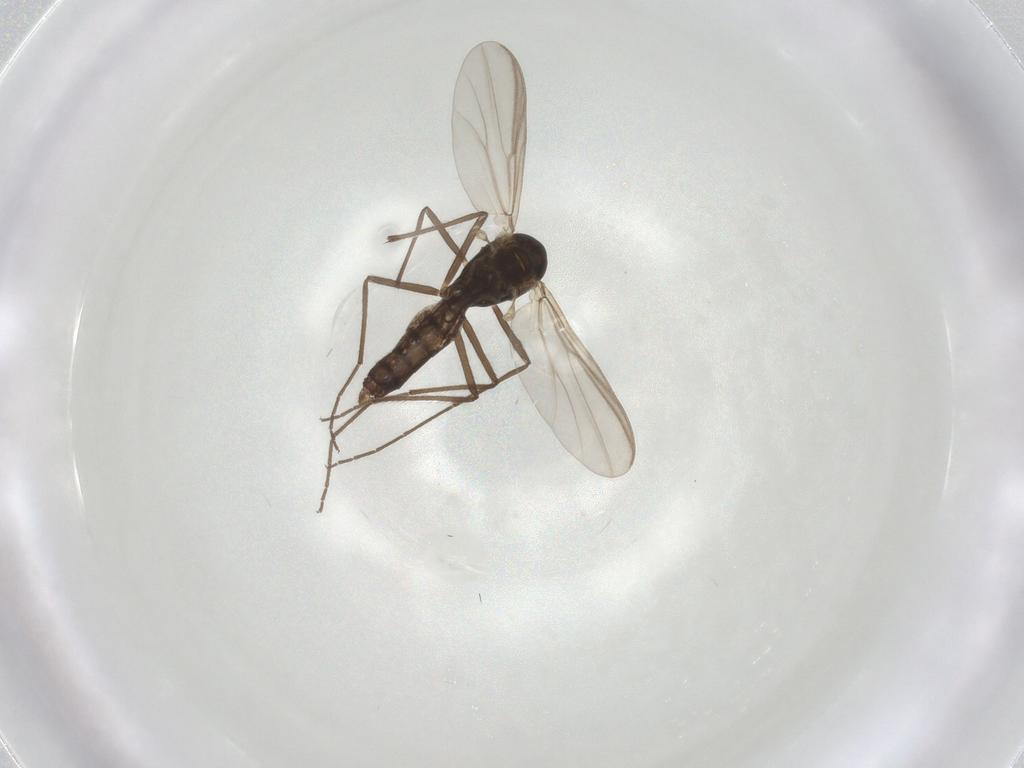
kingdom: Animalia
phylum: Arthropoda
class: Insecta
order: Diptera
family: Chironomidae
